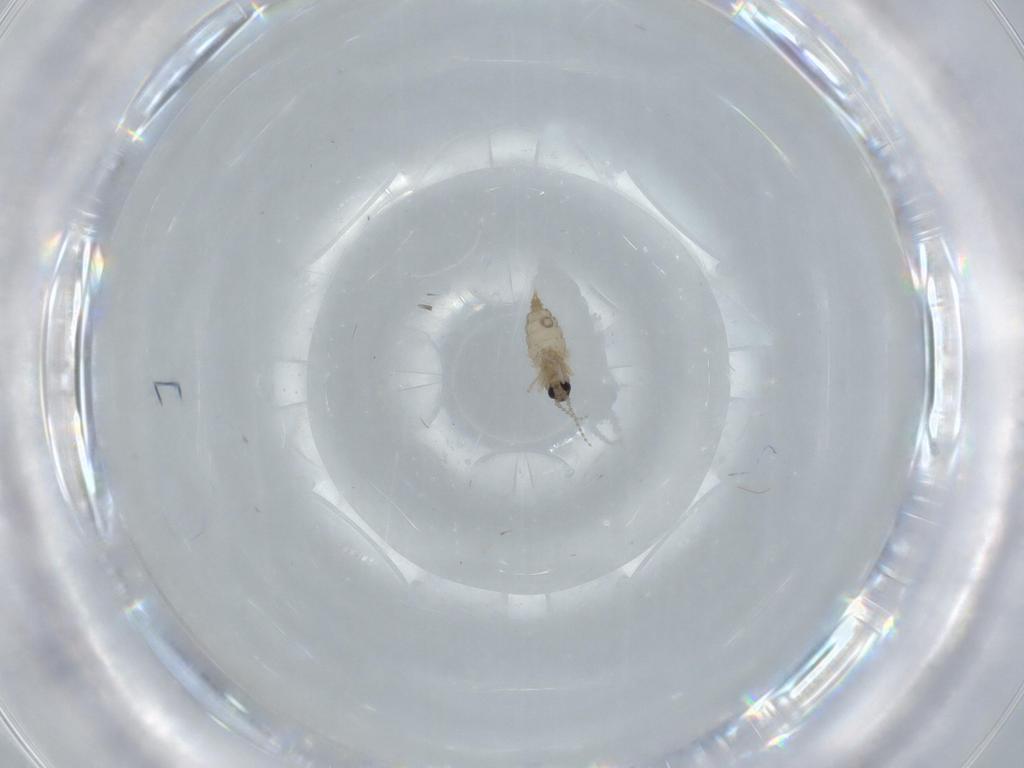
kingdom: Animalia
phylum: Arthropoda
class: Insecta
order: Diptera
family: Cecidomyiidae
